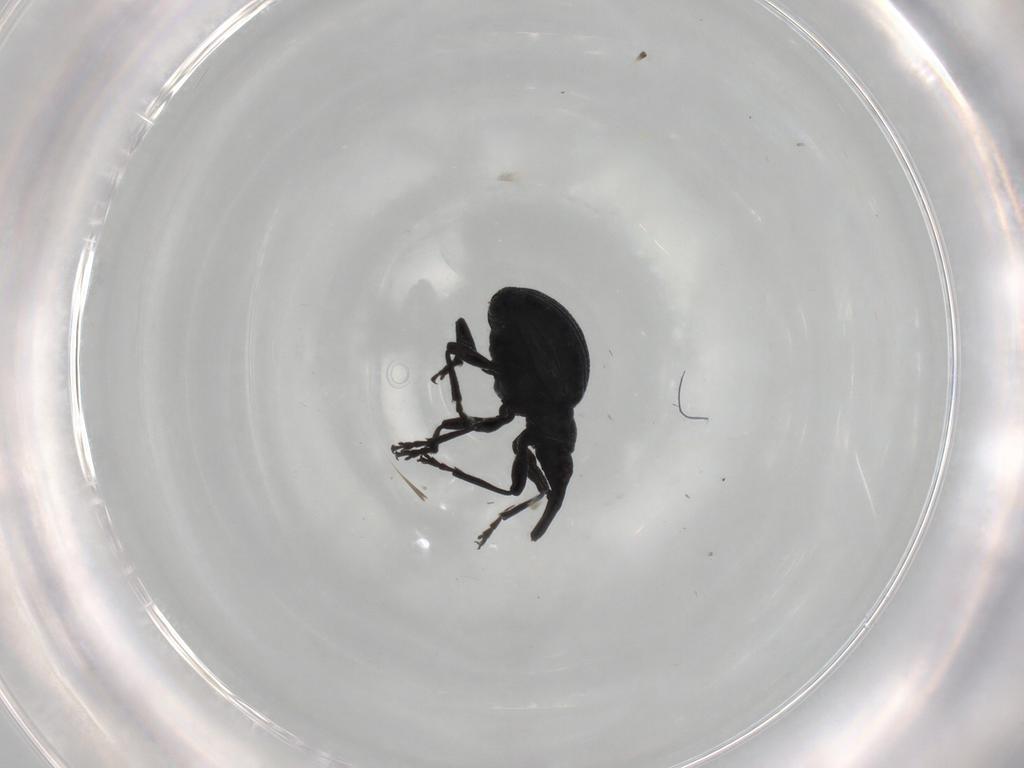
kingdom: Animalia
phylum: Arthropoda
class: Insecta
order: Coleoptera
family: Brentidae
